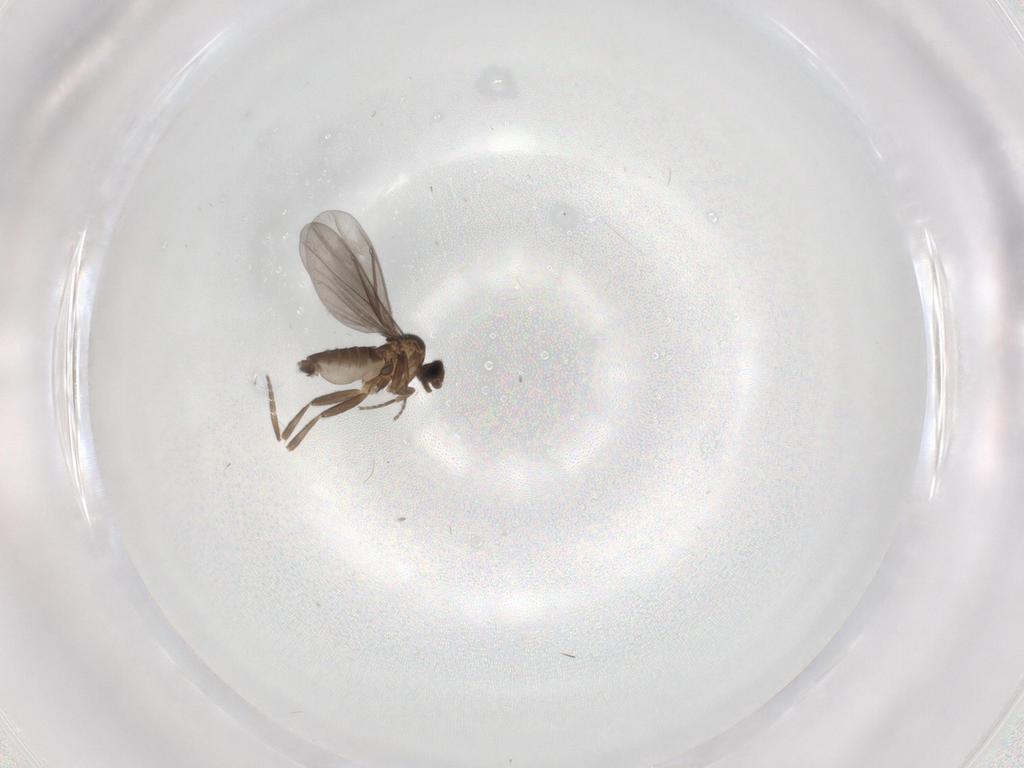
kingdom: Animalia
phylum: Arthropoda
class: Insecta
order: Diptera
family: Phoridae
